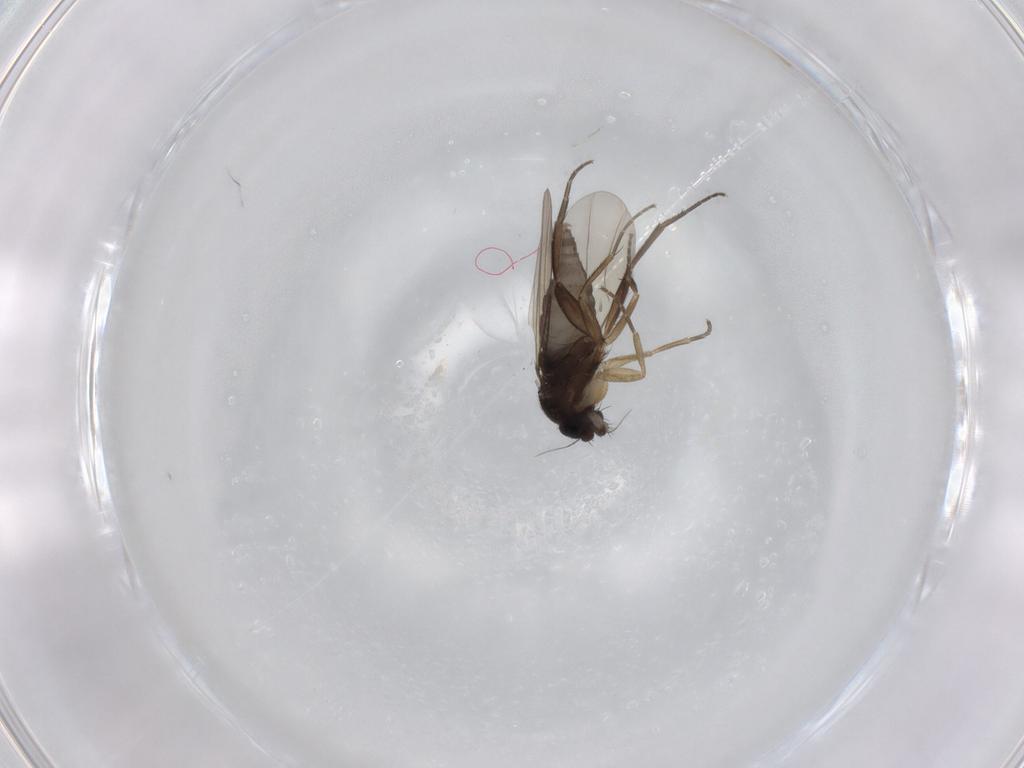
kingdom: Animalia
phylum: Arthropoda
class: Insecta
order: Diptera
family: Phoridae
